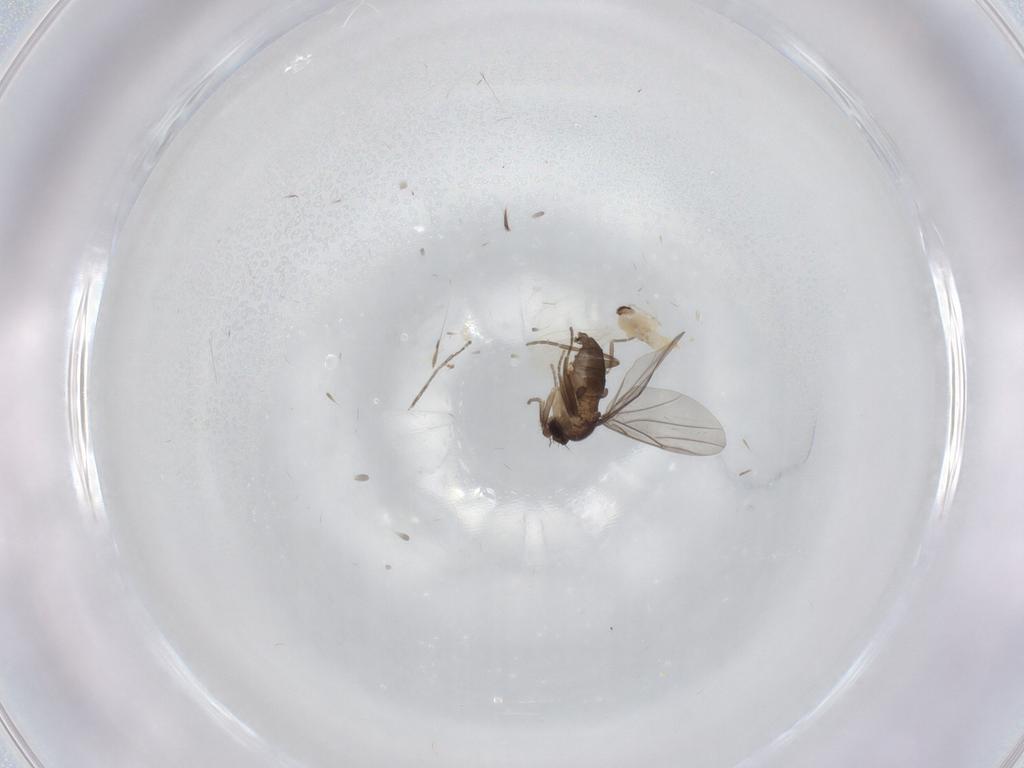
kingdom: Animalia
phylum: Arthropoda
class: Insecta
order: Diptera
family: Cecidomyiidae
